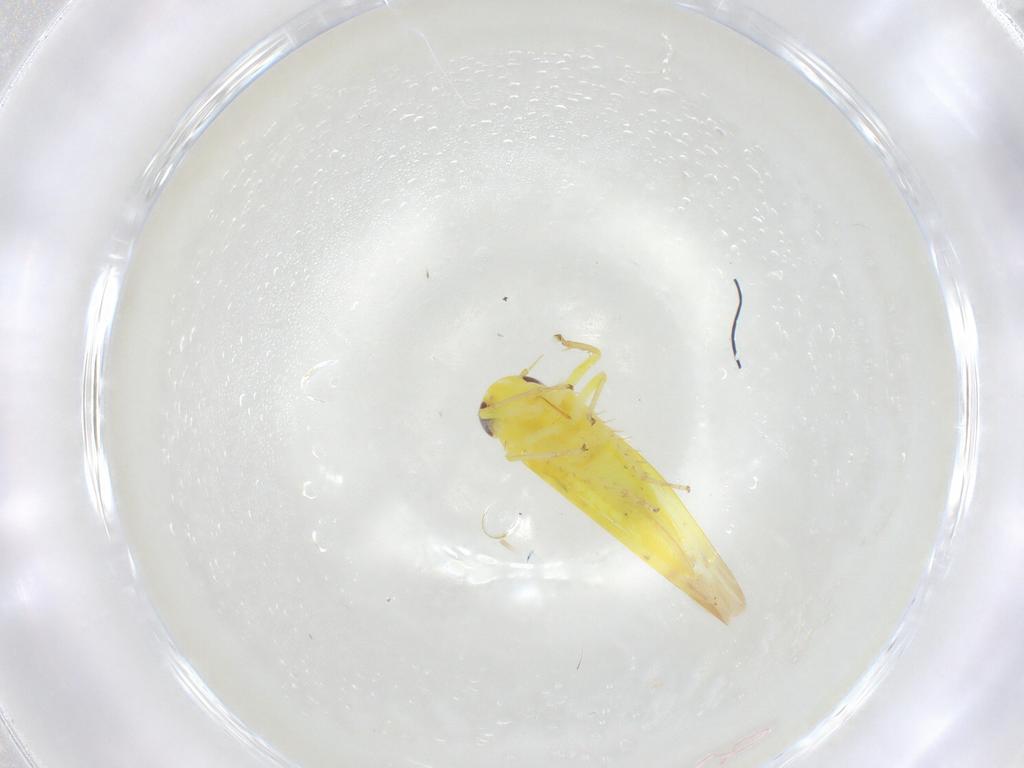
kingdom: Animalia
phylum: Arthropoda
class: Insecta
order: Hemiptera
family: Cicadellidae
